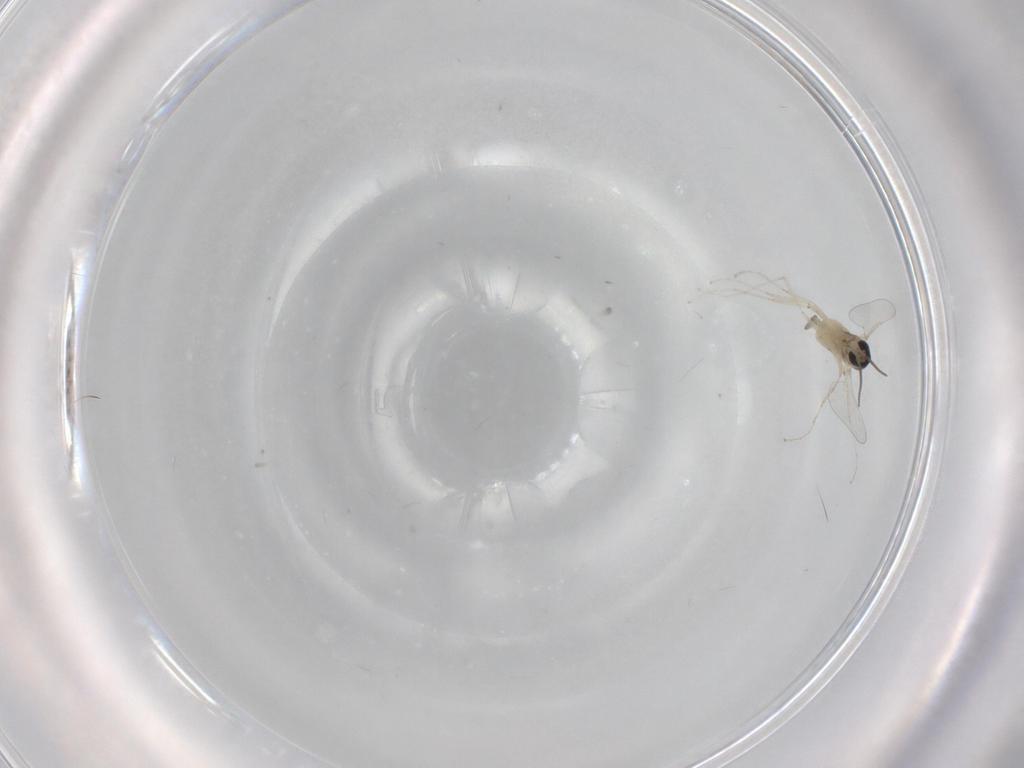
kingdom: Animalia
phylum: Arthropoda
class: Insecta
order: Diptera
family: Cecidomyiidae
